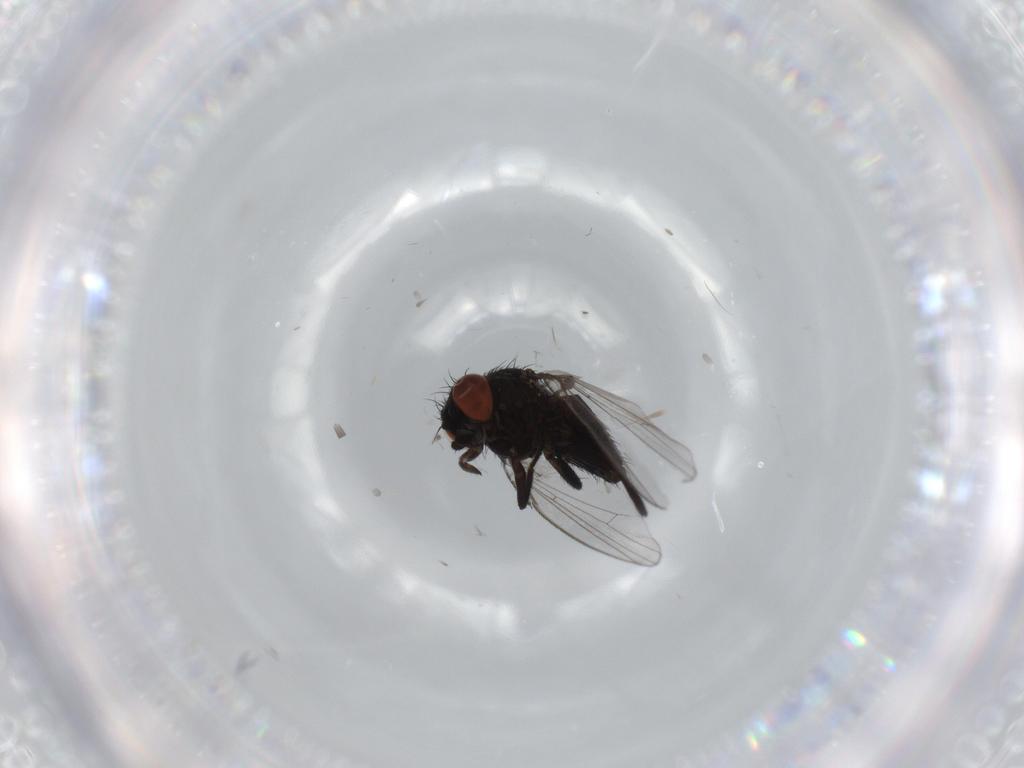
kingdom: Animalia
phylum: Arthropoda
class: Insecta
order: Diptera
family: Milichiidae
